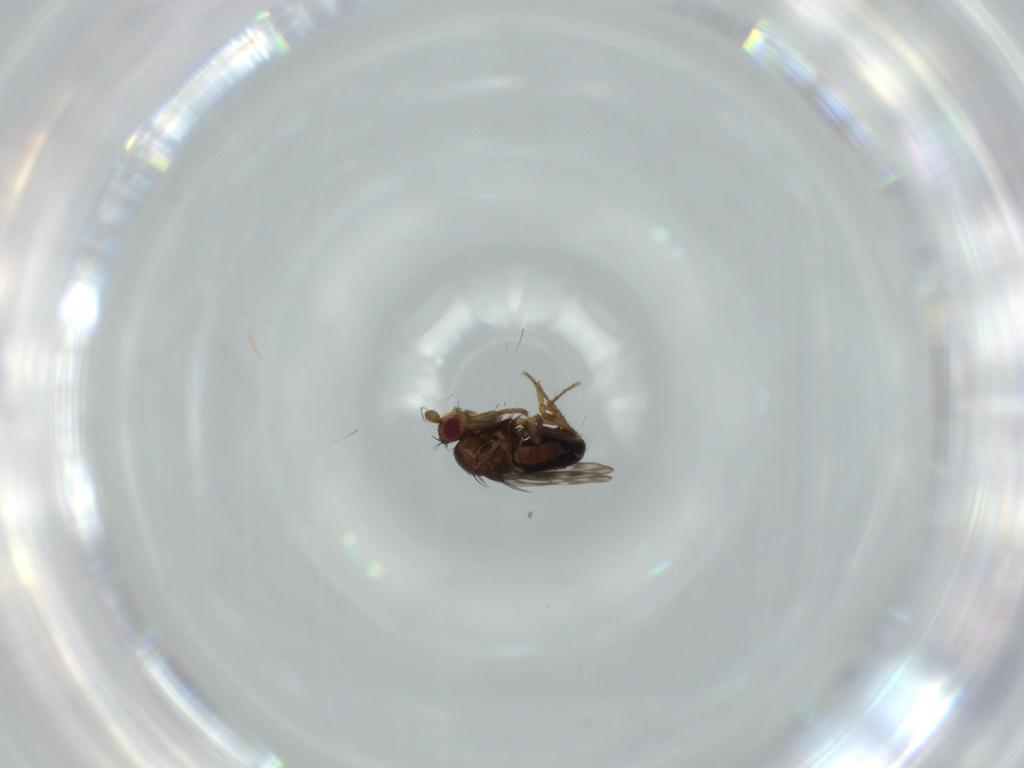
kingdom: Animalia
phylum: Arthropoda
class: Insecta
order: Diptera
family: Sphaeroceridae
